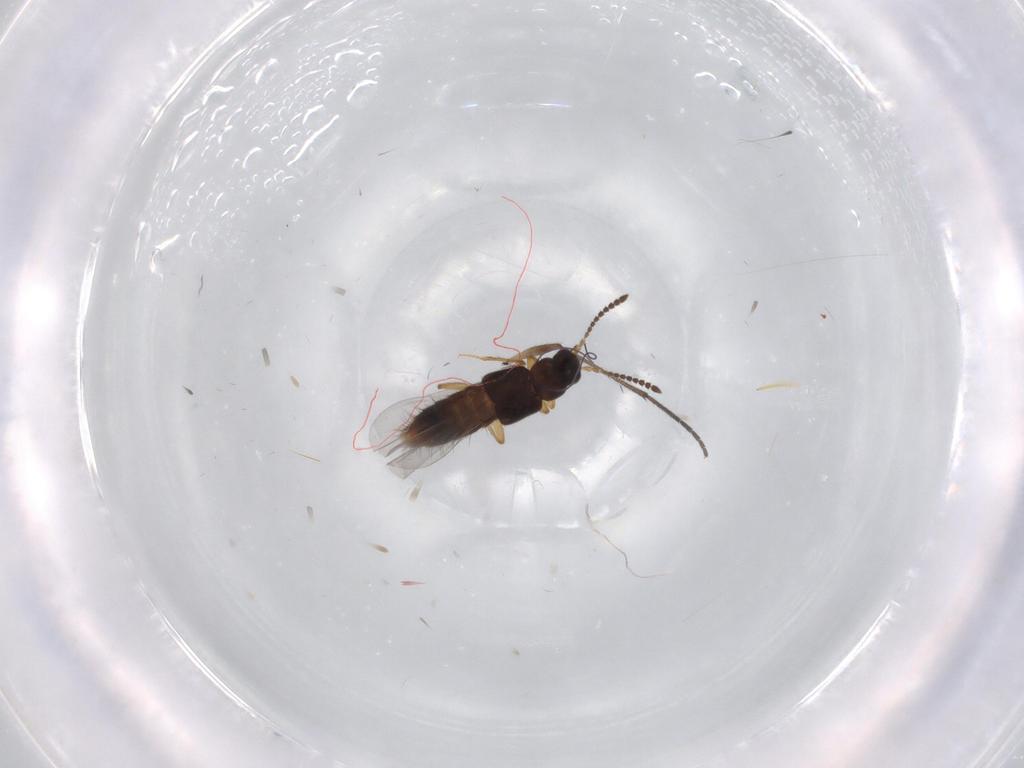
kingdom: Animalia
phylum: Arthropoda
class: Insecta
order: Coleoptera
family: Staphylinidae
